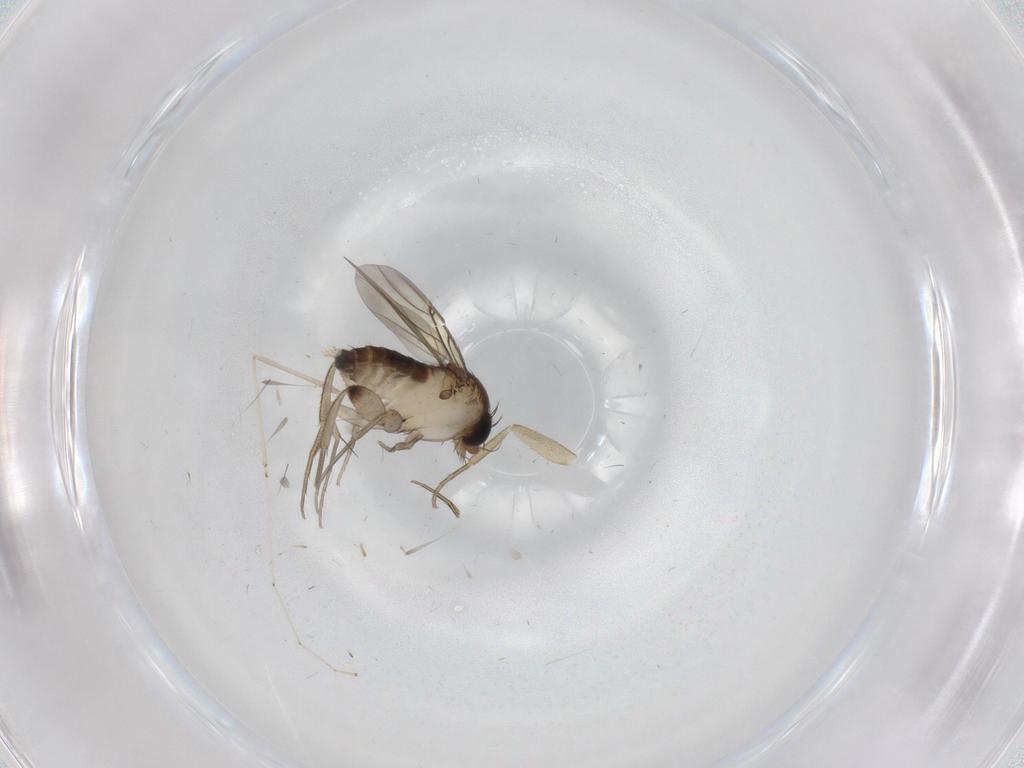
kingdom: Animalia
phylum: Arthropoda
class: Insecta
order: Diptera
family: Phoridae
